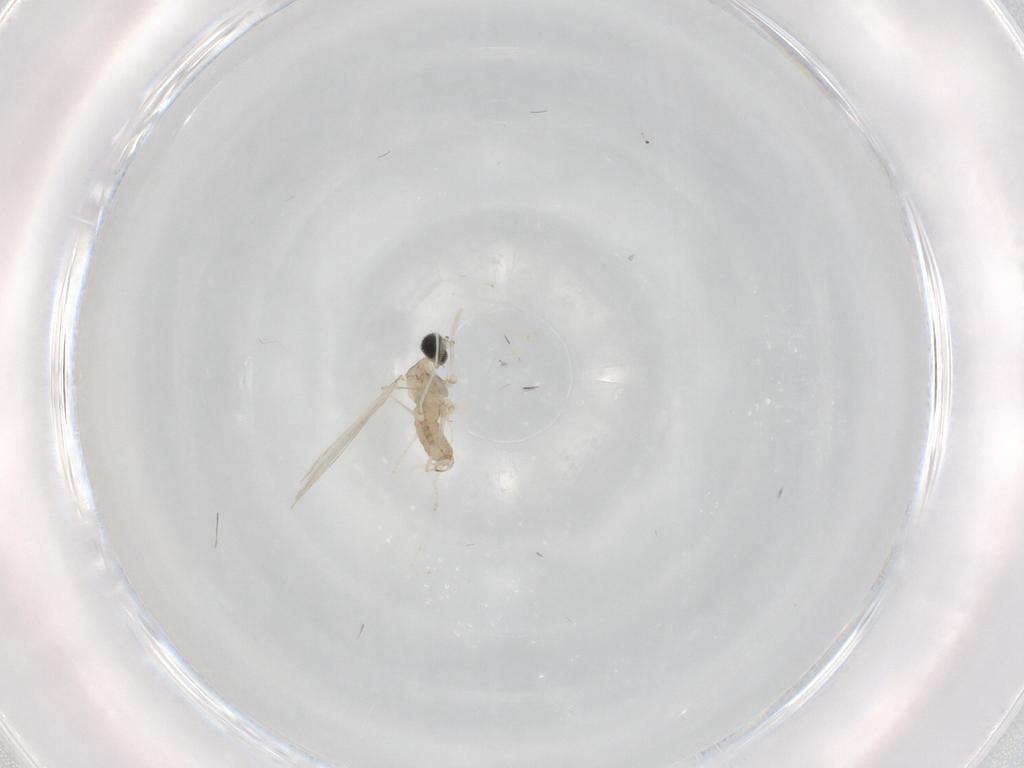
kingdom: Animalia
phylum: Arthropoda
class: Insecta
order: Diptera
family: Cecidomyiidae
